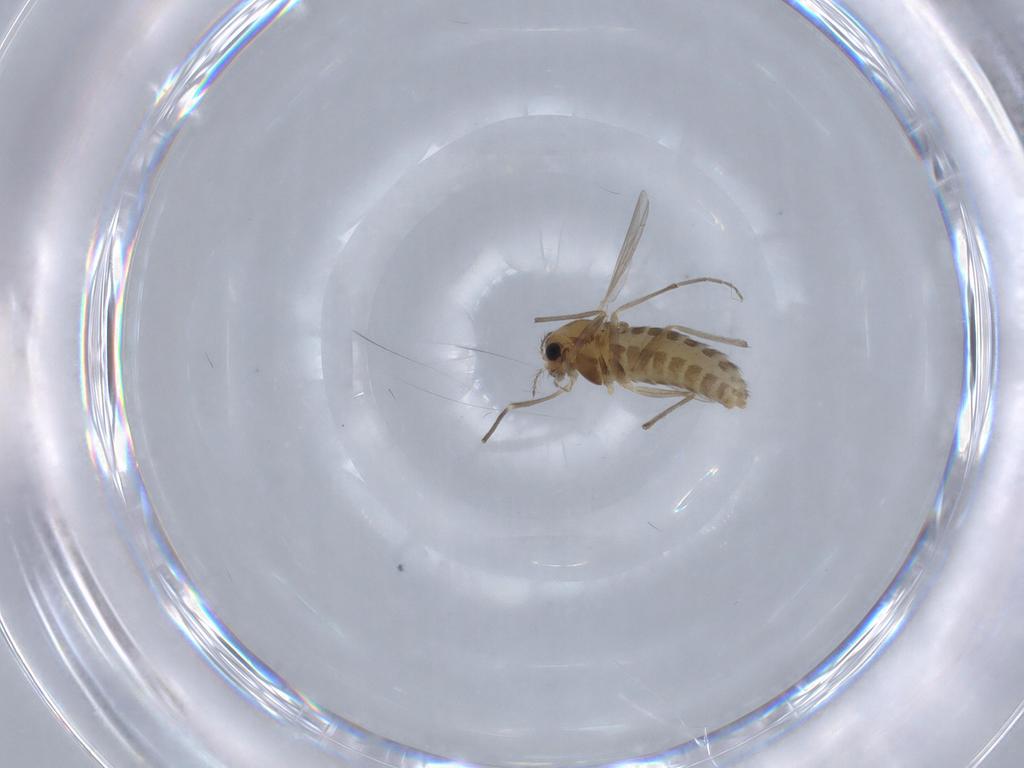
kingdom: Animalia
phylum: Arthropoda
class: Insecta
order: Diptera
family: Chironomidae
